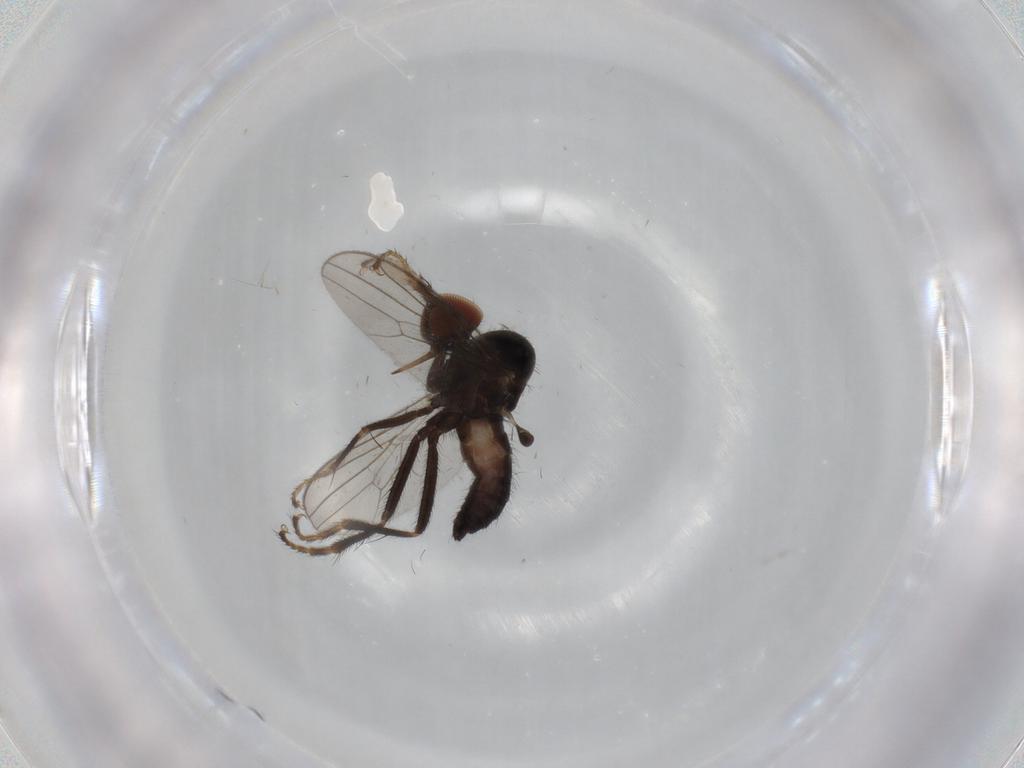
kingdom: Animalia
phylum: Arthropoda
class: Insecta
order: Diptera
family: Hybotidae
